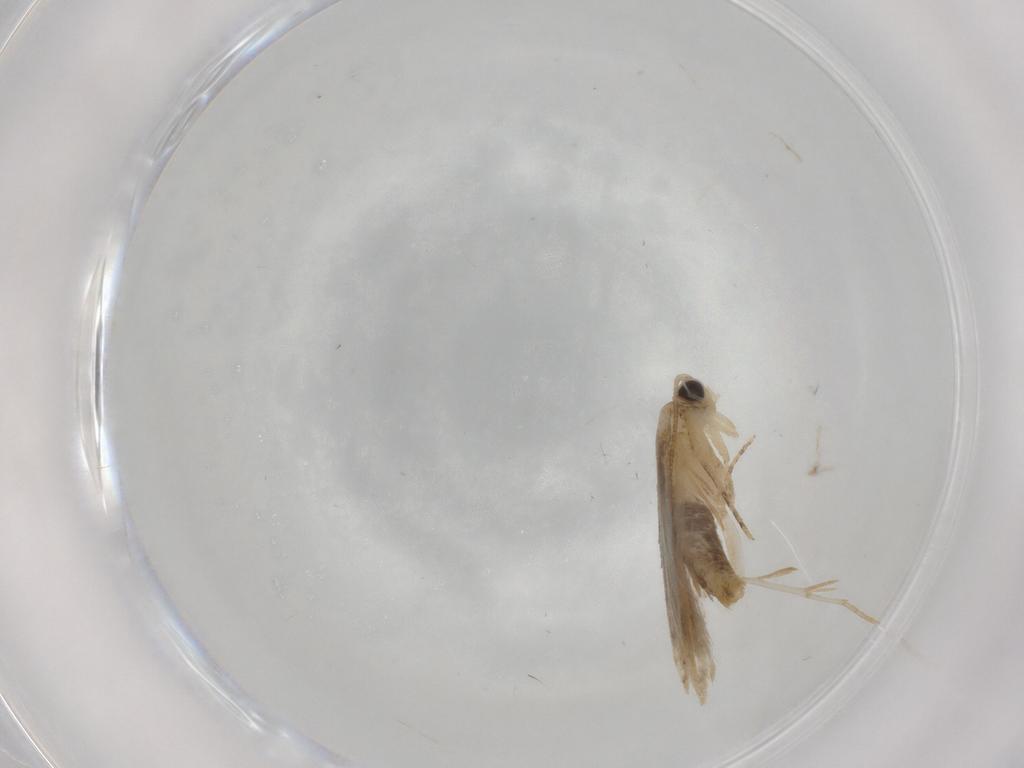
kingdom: Animalia
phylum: Arthropoda
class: Insecta
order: Lepidoptera
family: Tineidae
